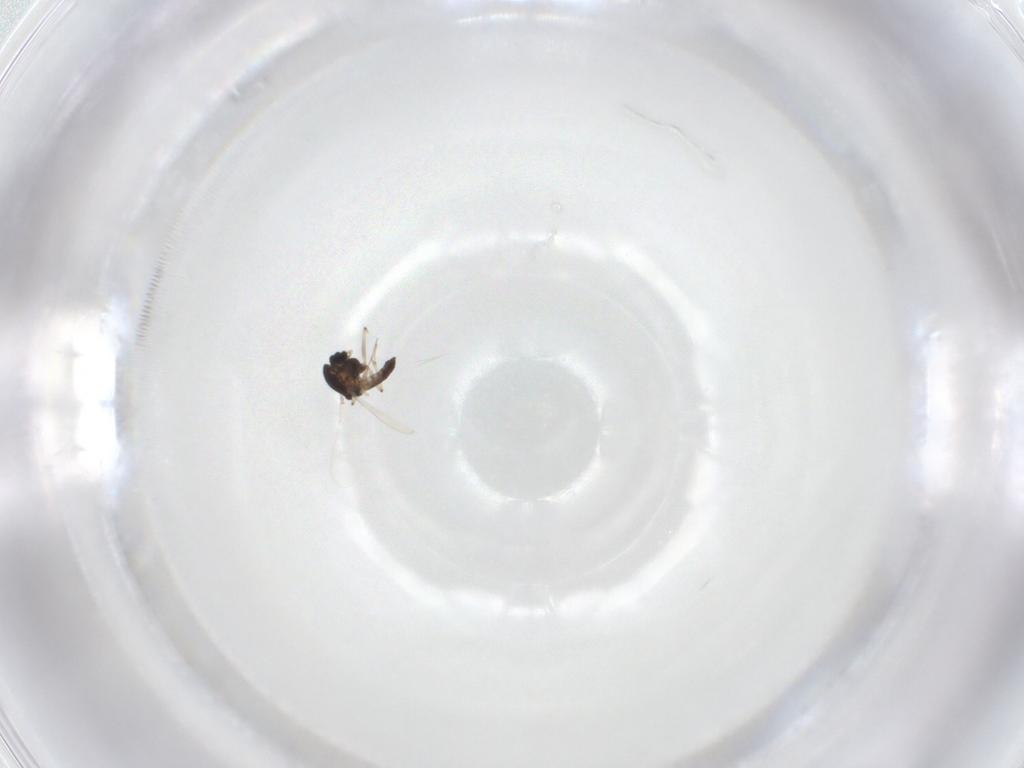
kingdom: Animalia
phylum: Arthropoda
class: Insecta
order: Diptera
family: Chironomidae
